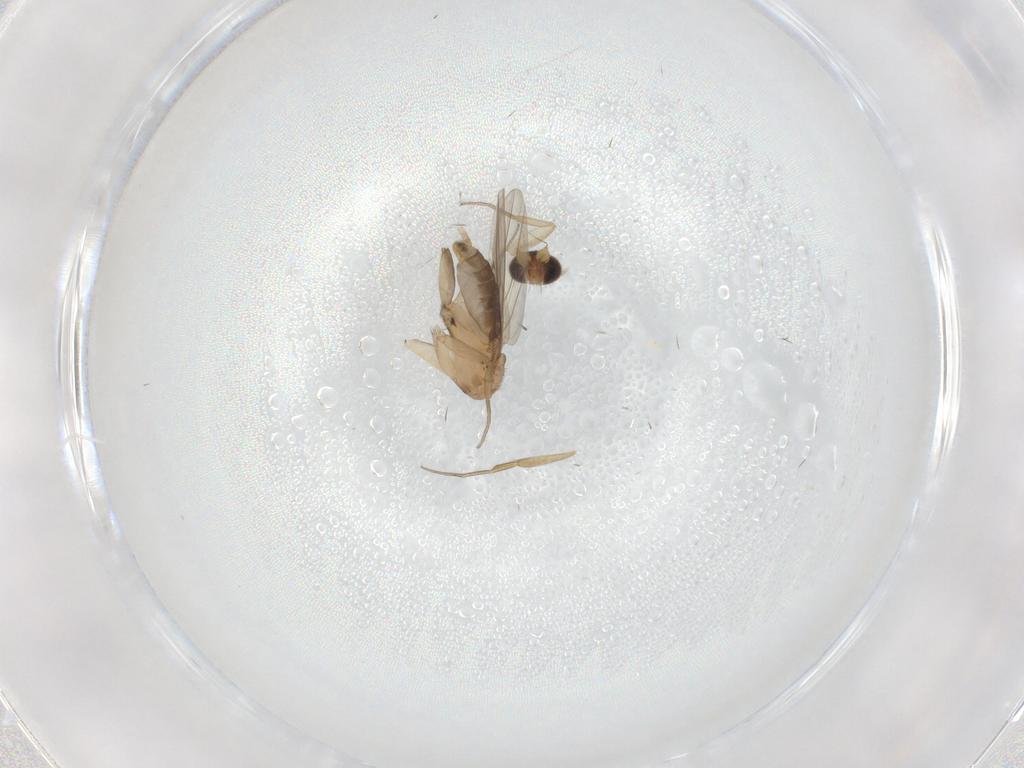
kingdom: Animalia
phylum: Arthropoda
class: Insecta
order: Diptera
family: Phoridae
